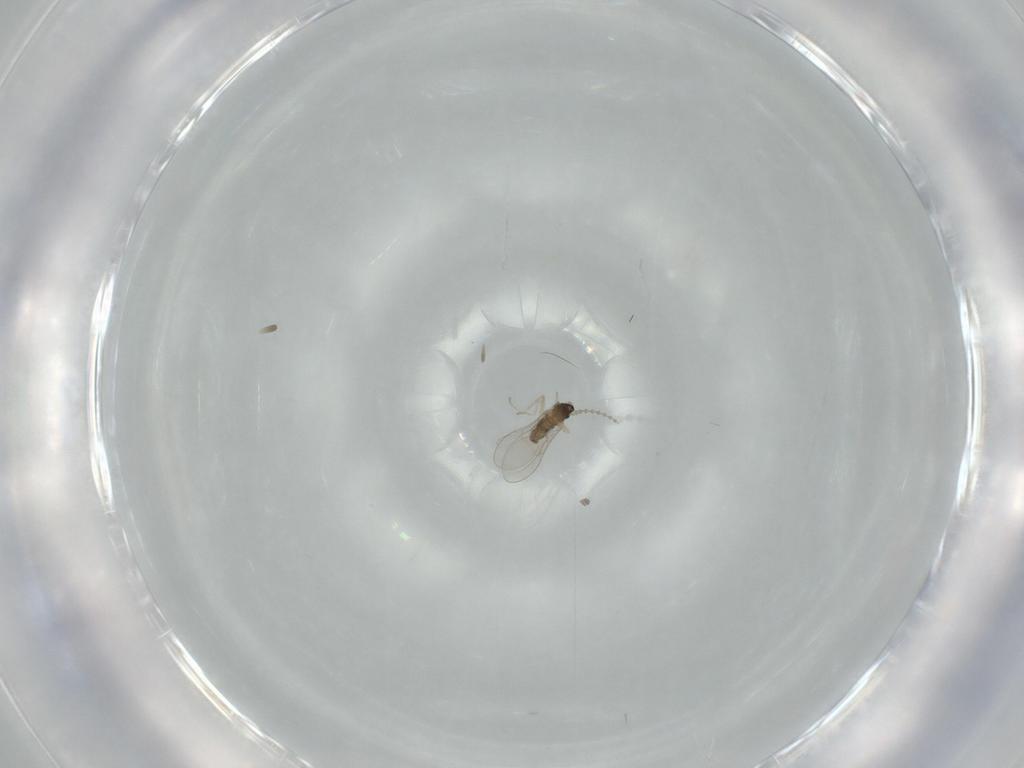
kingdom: Animalia
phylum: Arthropoda
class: Insecta
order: Diptera
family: Cecidomyiidae
